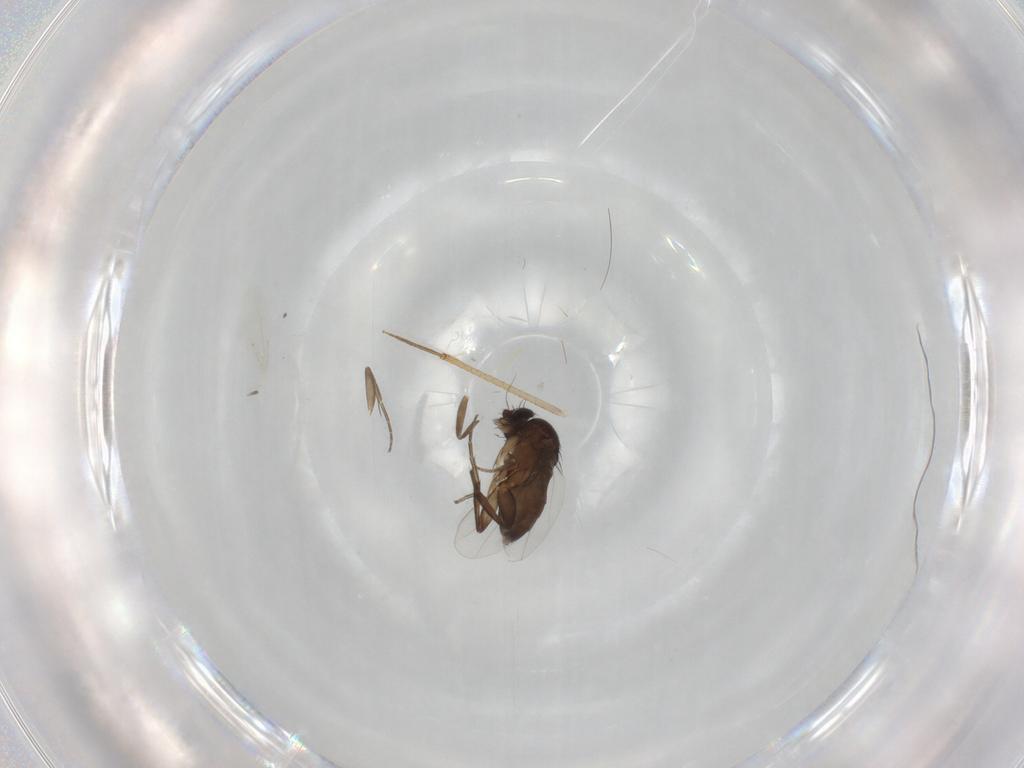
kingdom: Animalia
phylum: Arthropoda
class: Insecta
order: Diptera
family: Phoridae
